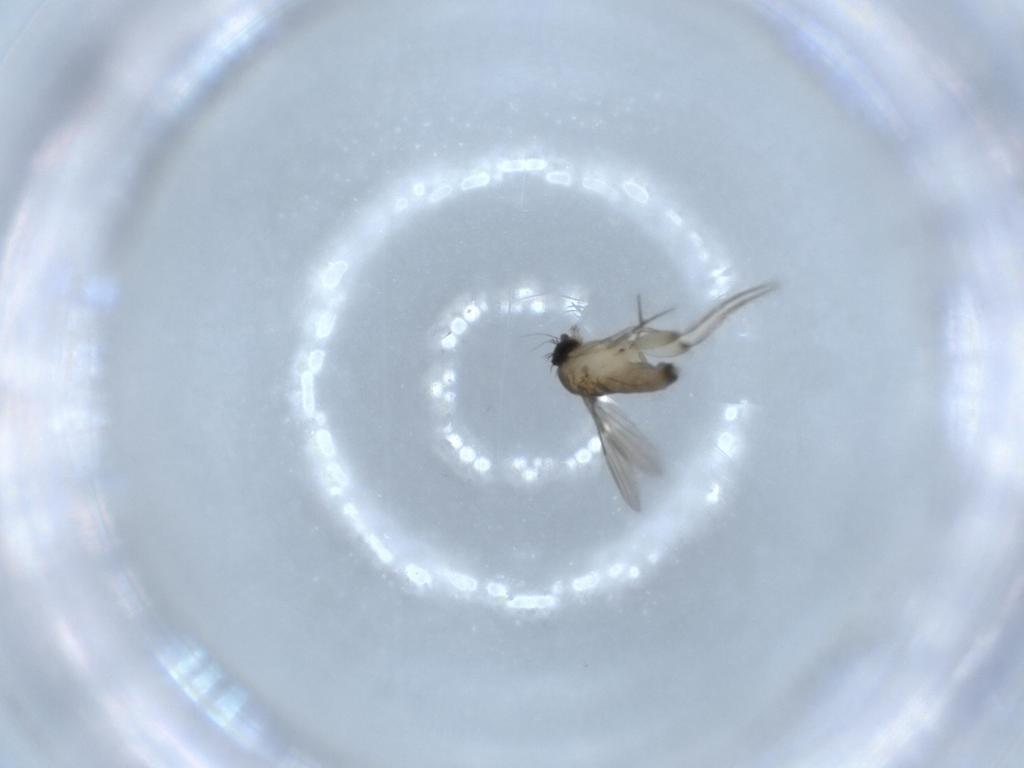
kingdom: Animalia
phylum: Arthropoda
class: Insecta
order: Diptera
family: Phoridae
